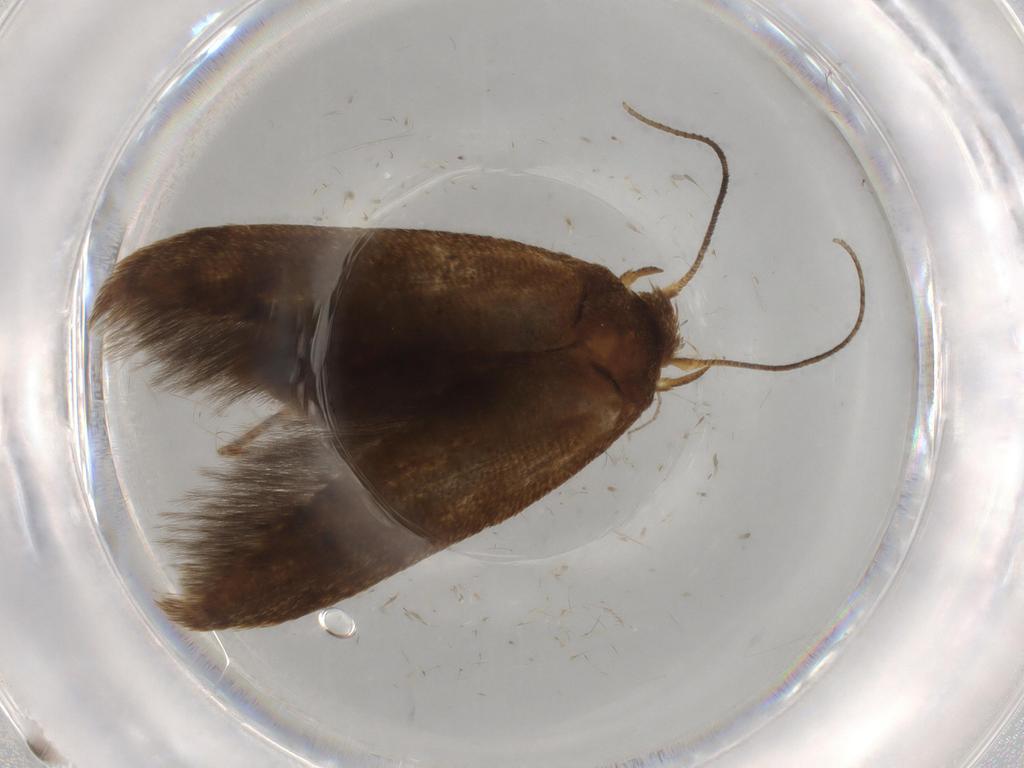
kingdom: Animalia
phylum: Arthropoda
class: Insecta
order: Lepidoptera
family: Blastobasidae
